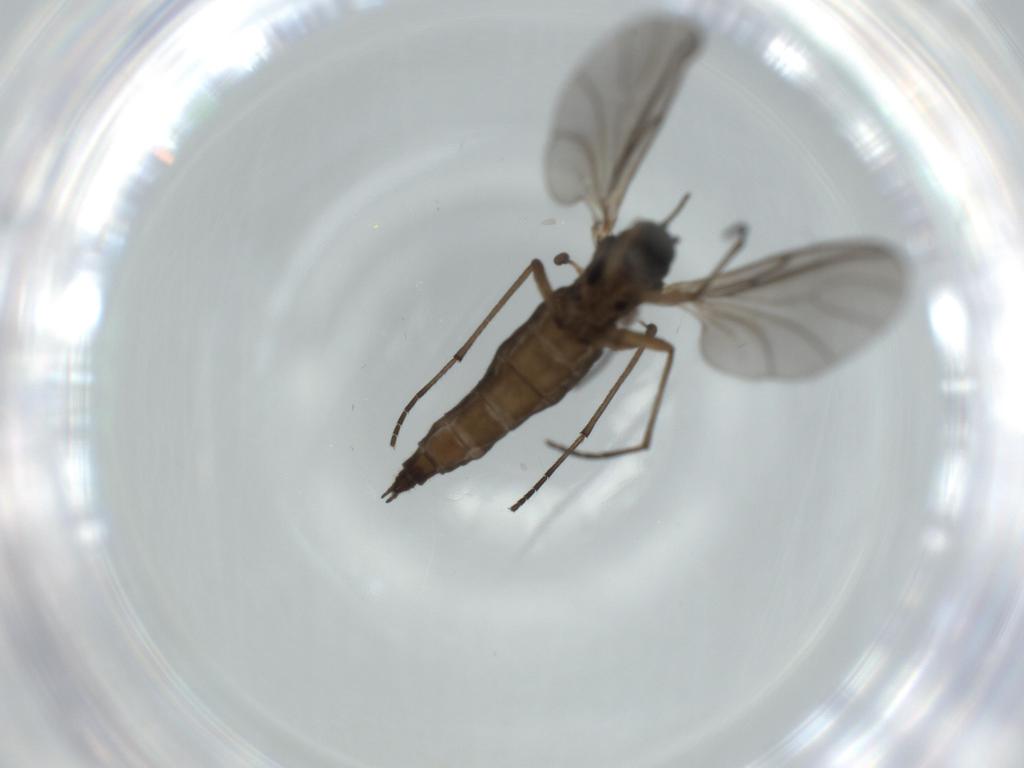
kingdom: Animalia
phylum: Arthropoda
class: Insecta
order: Diptera
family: Sciaridae
